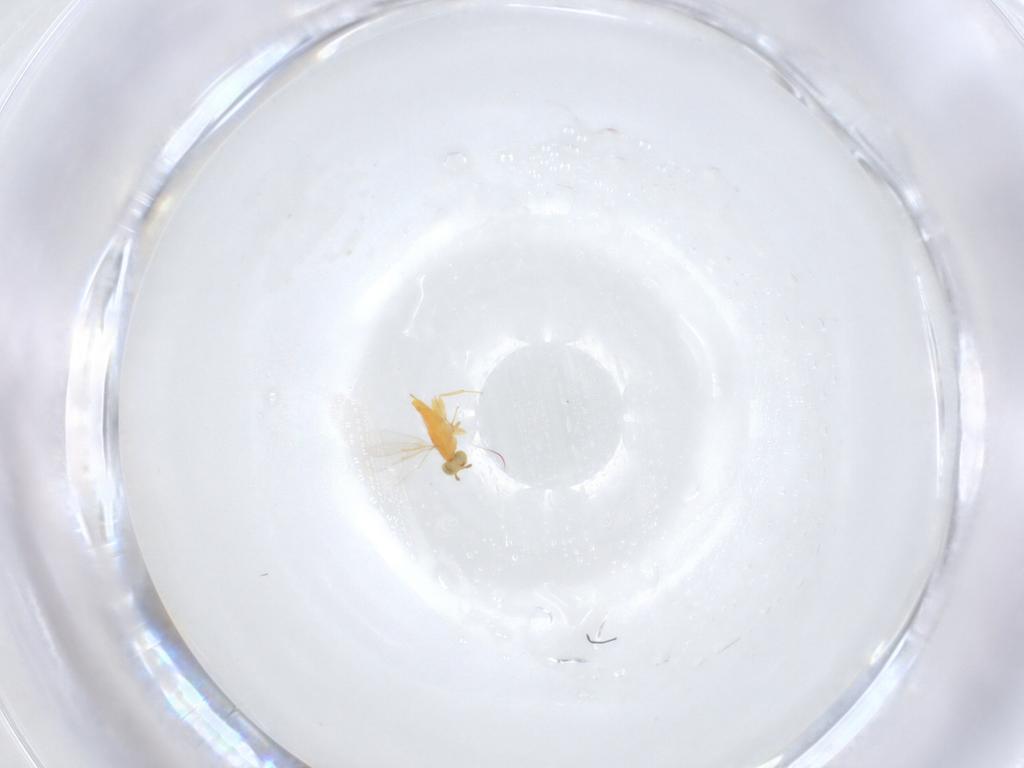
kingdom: Animalia
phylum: Arthropoda
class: Insecta
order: Hymenoptera
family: Aphelinidae
